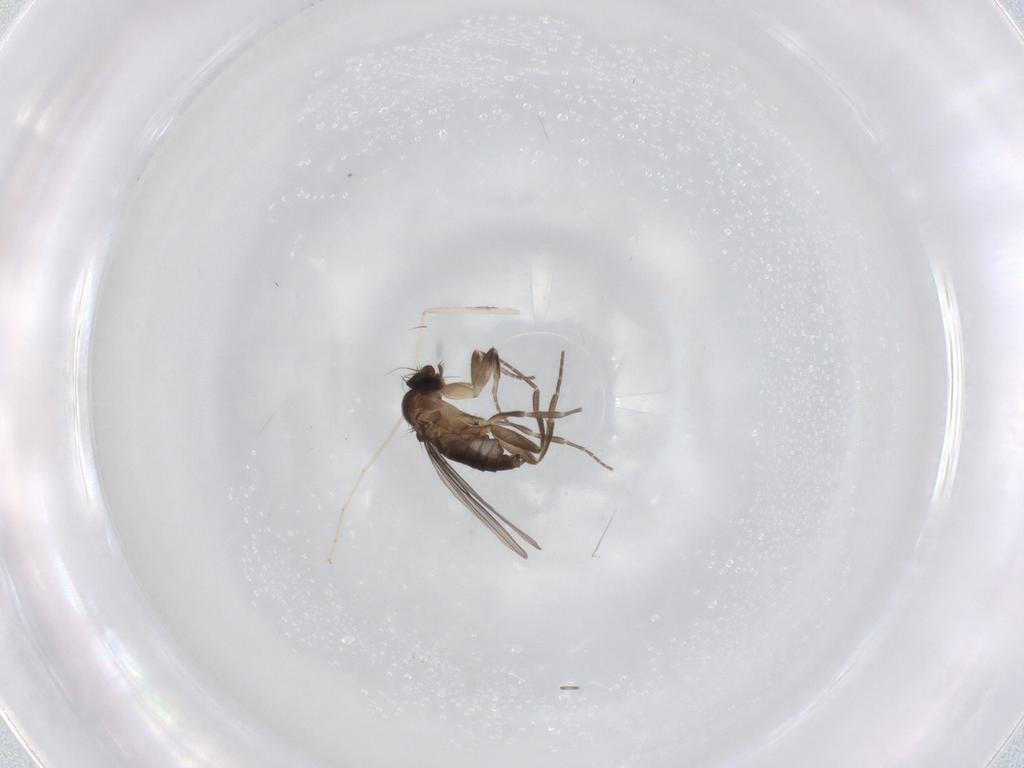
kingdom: Animalia
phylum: Arthropoda
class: Insecta
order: Diptera
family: Cecidomyiidae
